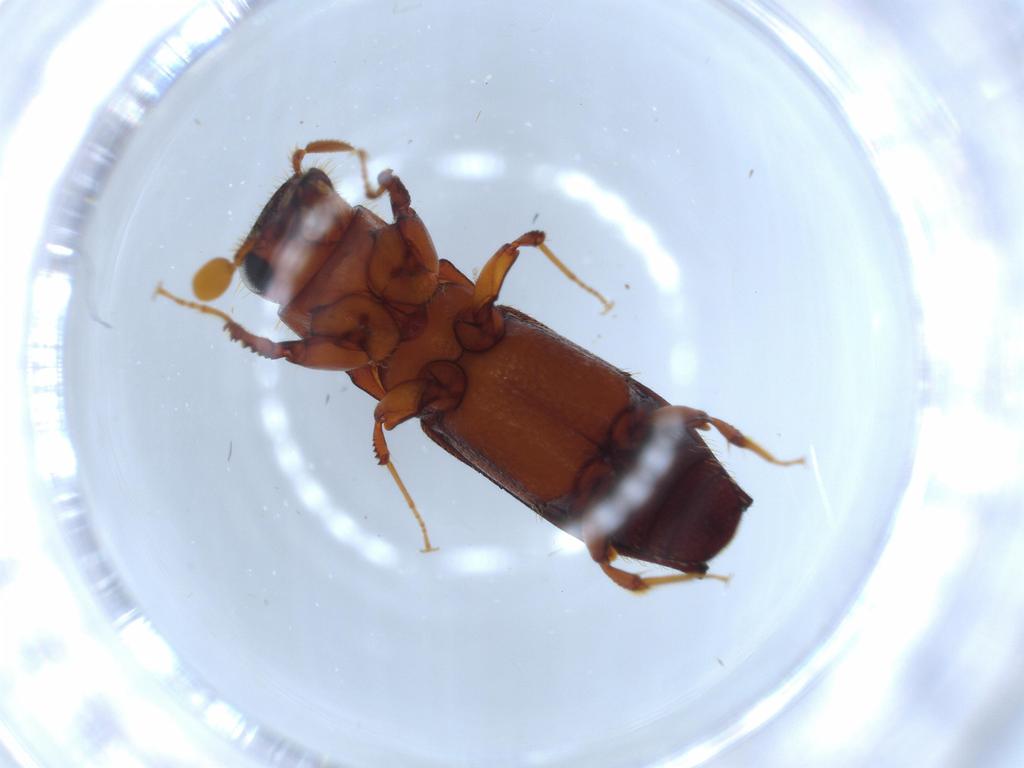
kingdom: Animalia
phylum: Arthropoda
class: Insecta
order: Coleoptera
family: Curculionidae
